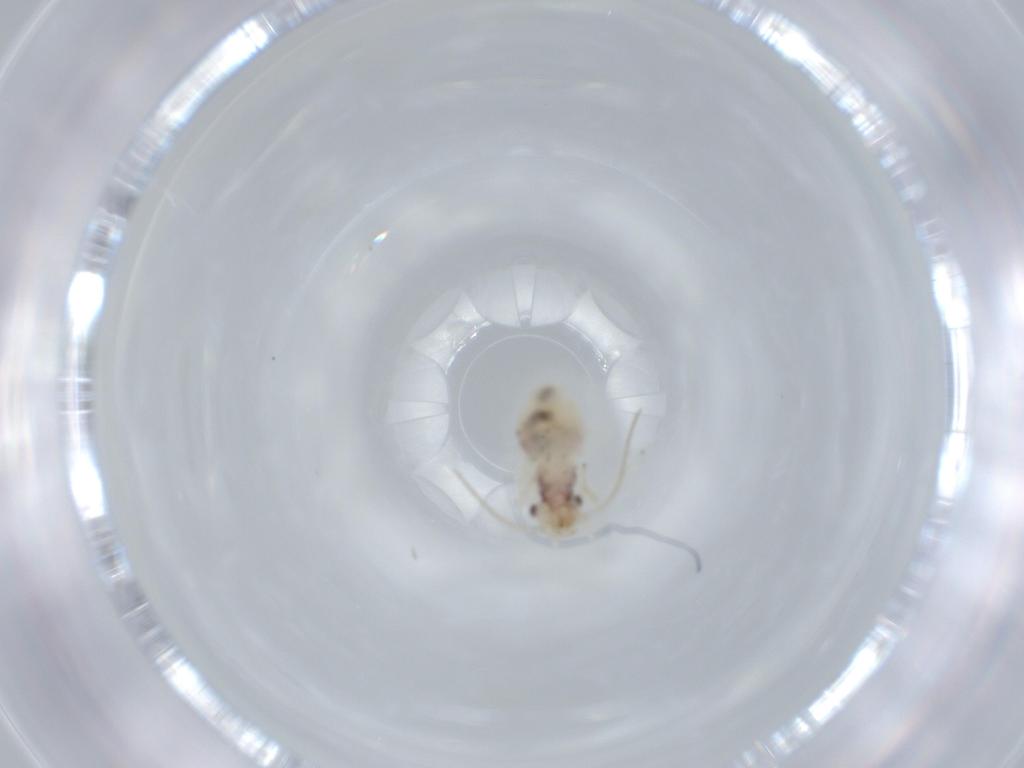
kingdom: Animalia
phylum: Arthropoda
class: Insecta
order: Psocodea
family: Caeciliusidae
